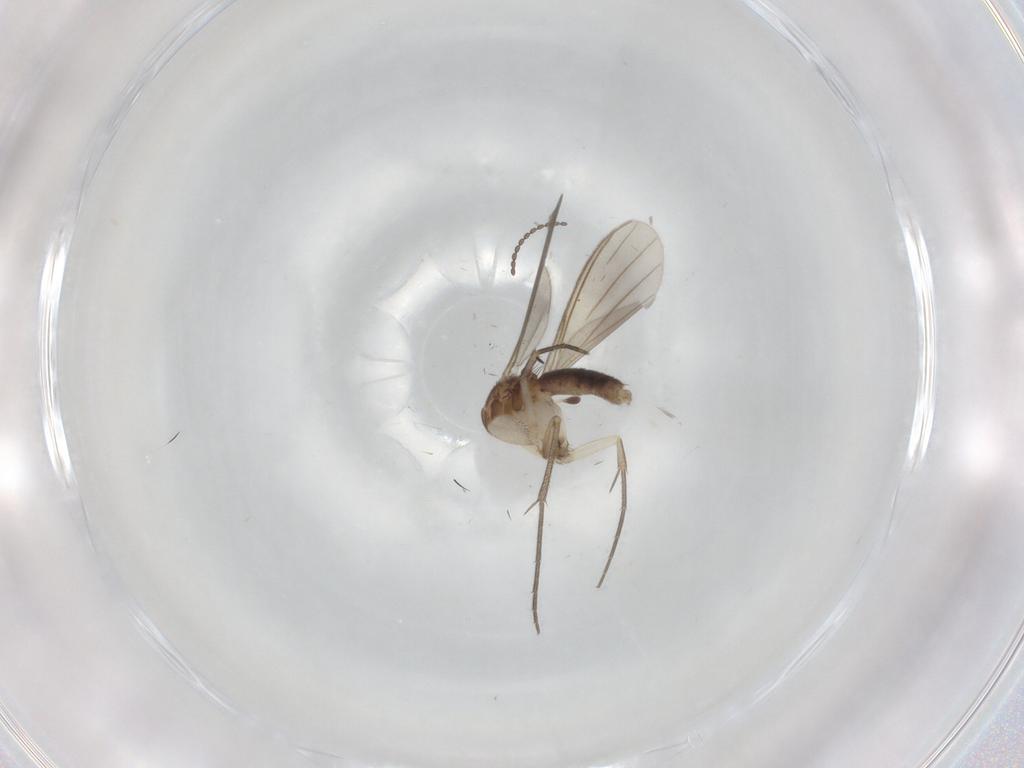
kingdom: Animalia
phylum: Arthropoda
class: Insecta
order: Diptera
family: Mycetophilidae
